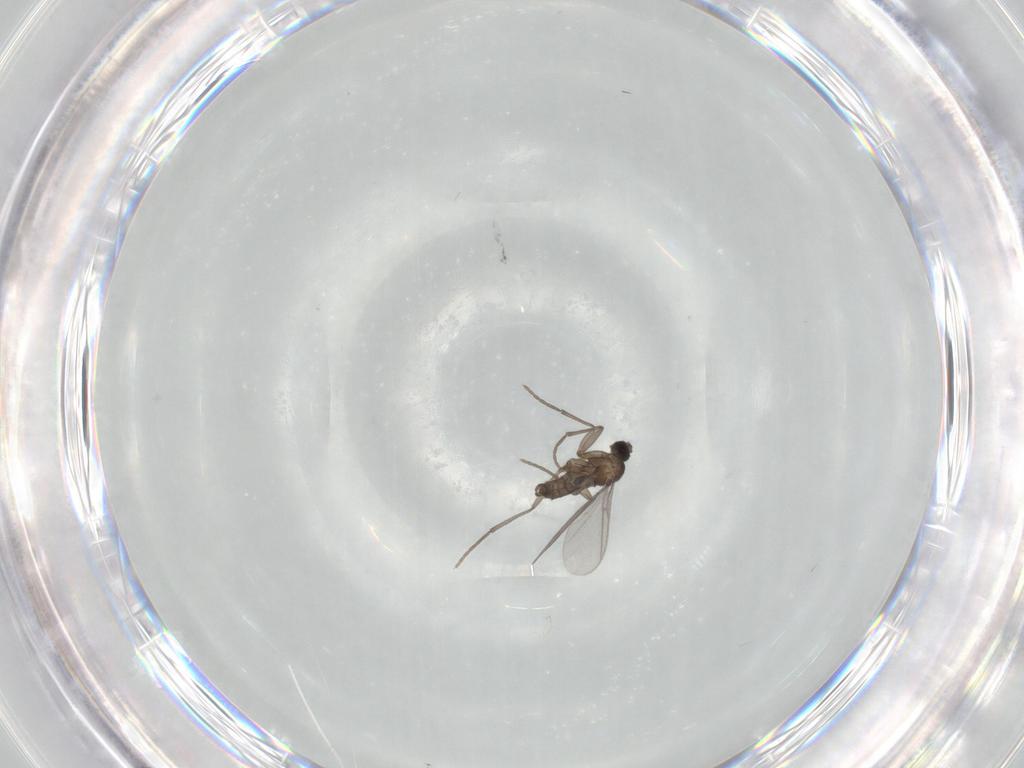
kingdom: Animalia
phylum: Arthropoda
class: Insecta
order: Diptera
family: Sciaridae
